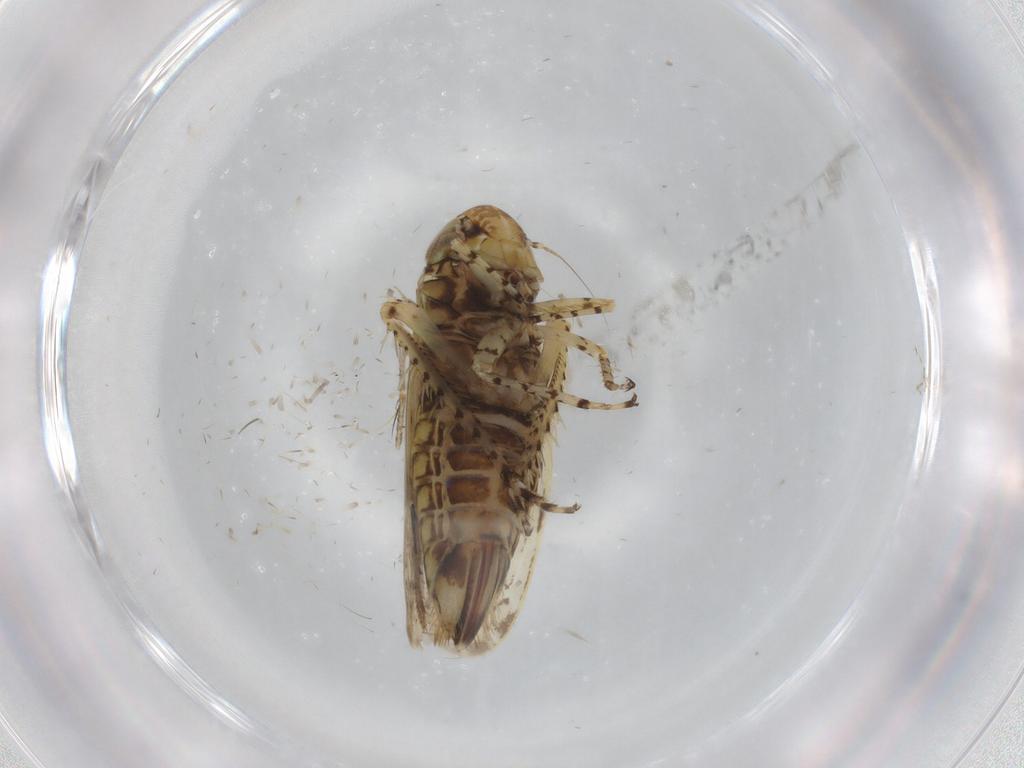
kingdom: Animalia
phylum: Arthropoda
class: Insecta
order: Hemiptera
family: Cicadellidae
